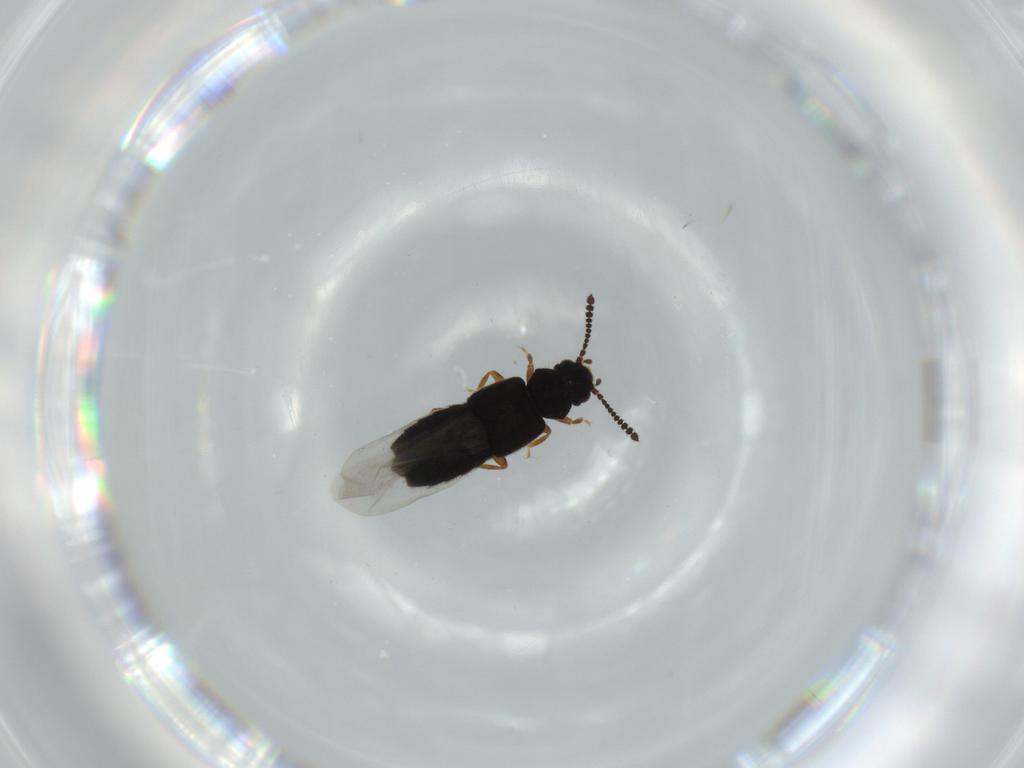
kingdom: Animalia
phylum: Arthropoda
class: Insecta
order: Coleoptera
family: Staphylinidae
